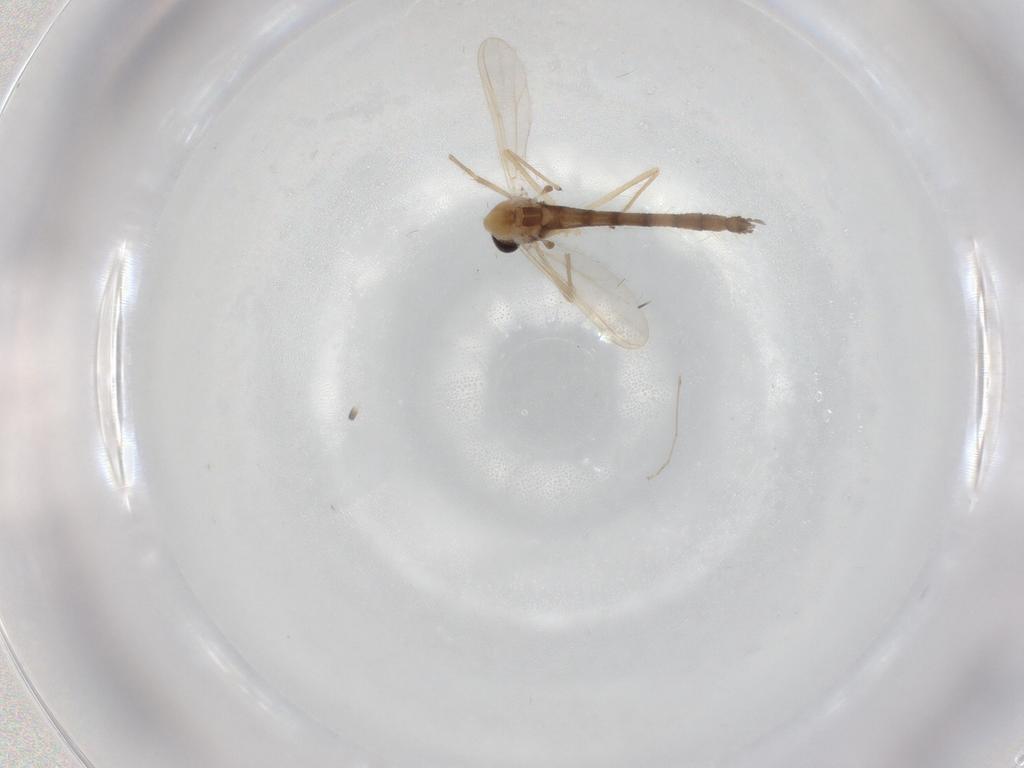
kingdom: Animalia
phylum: Arthropoda
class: Insecta
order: Diptera
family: Chironomidae
